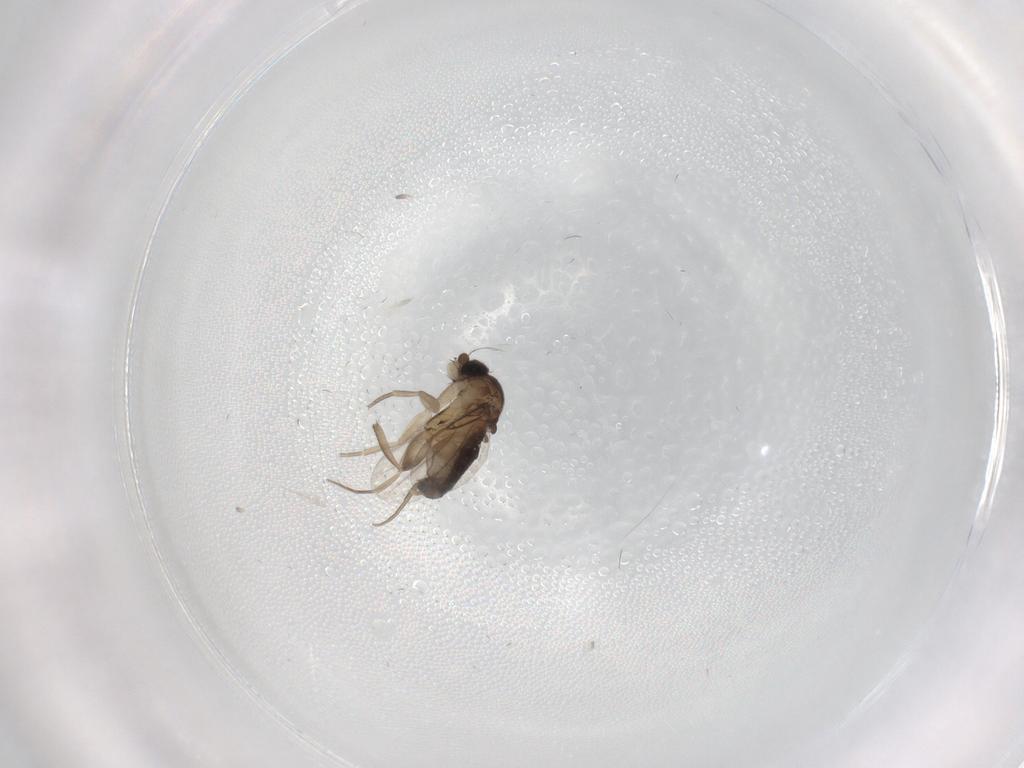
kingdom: Animalia
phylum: Arthropoda
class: Insecta
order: Diptera
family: Phoridae
